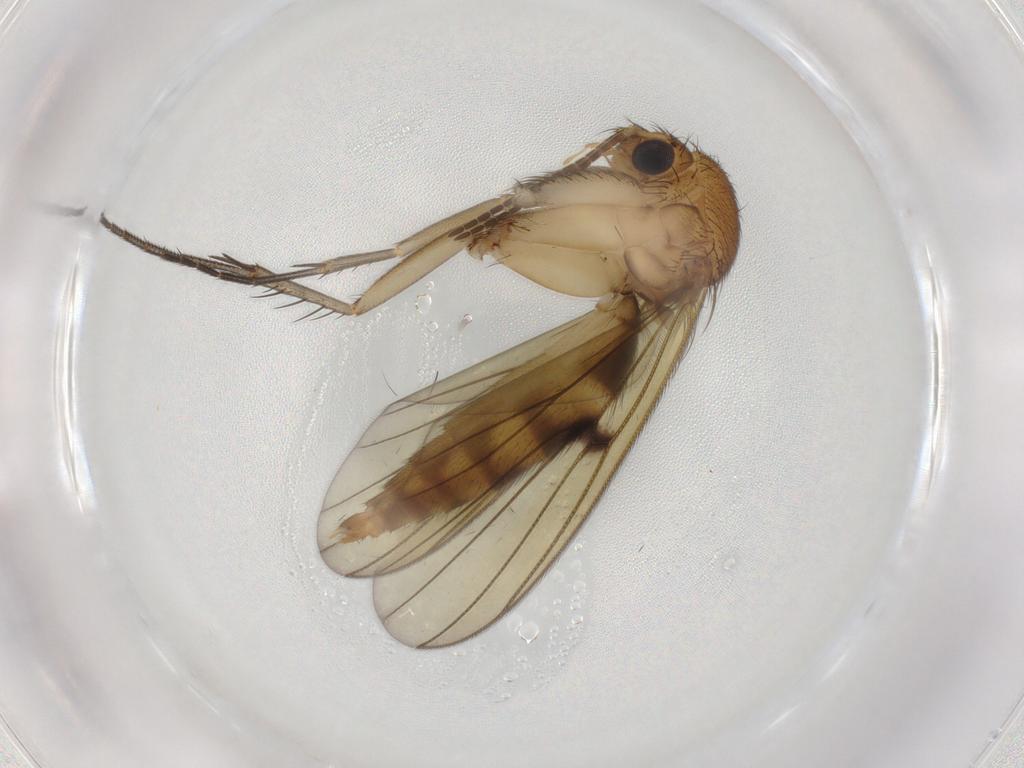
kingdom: Animalia
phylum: Arthropoda
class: Insecta
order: Diptera
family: Mycetophilidae
